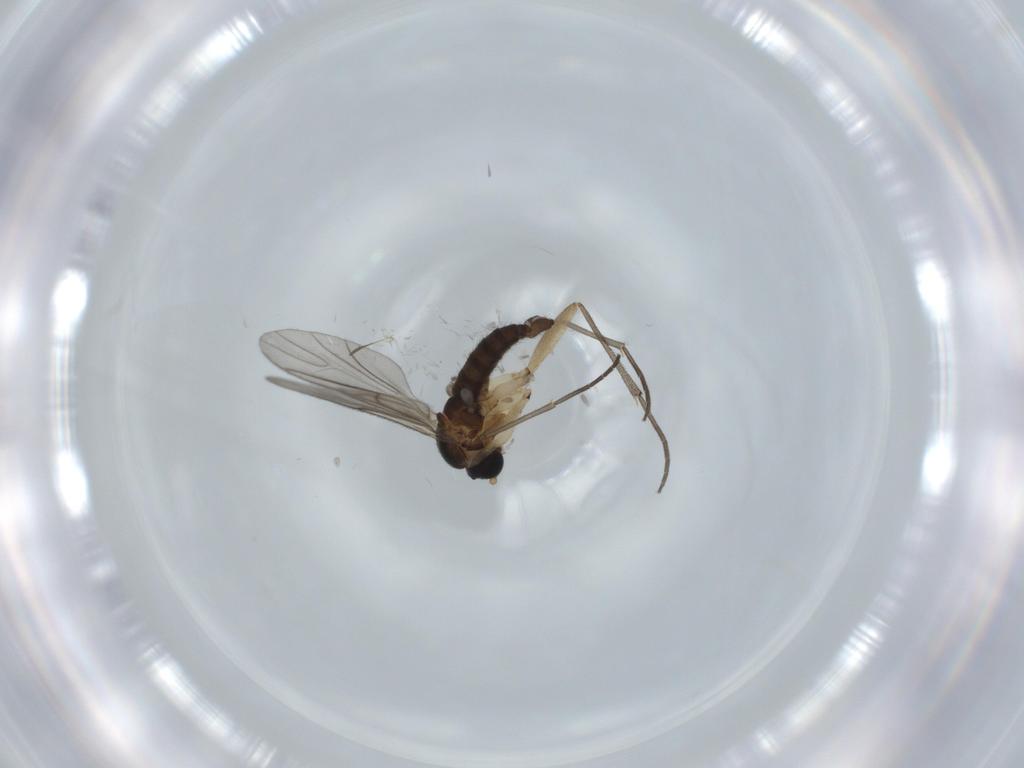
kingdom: Animalia
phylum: Arthropoda
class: Insecta
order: Diptera
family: Sciaridae
